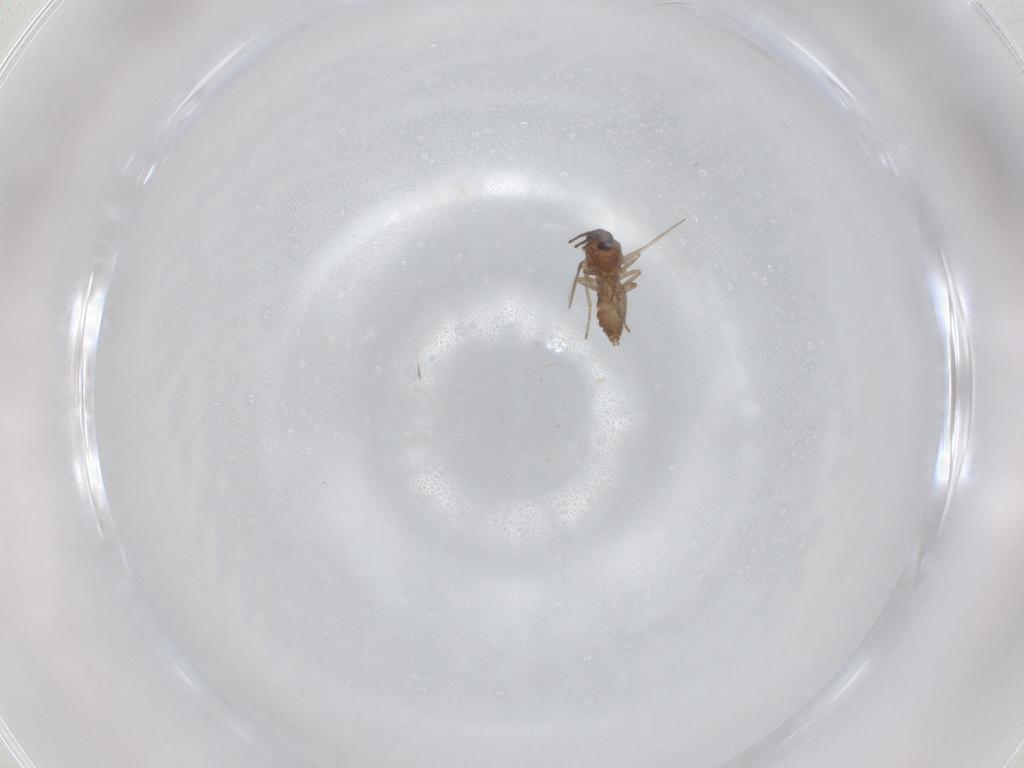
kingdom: Animalia
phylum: Arthropoda
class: Insecta
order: Diptera
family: Ceratopogonidae
